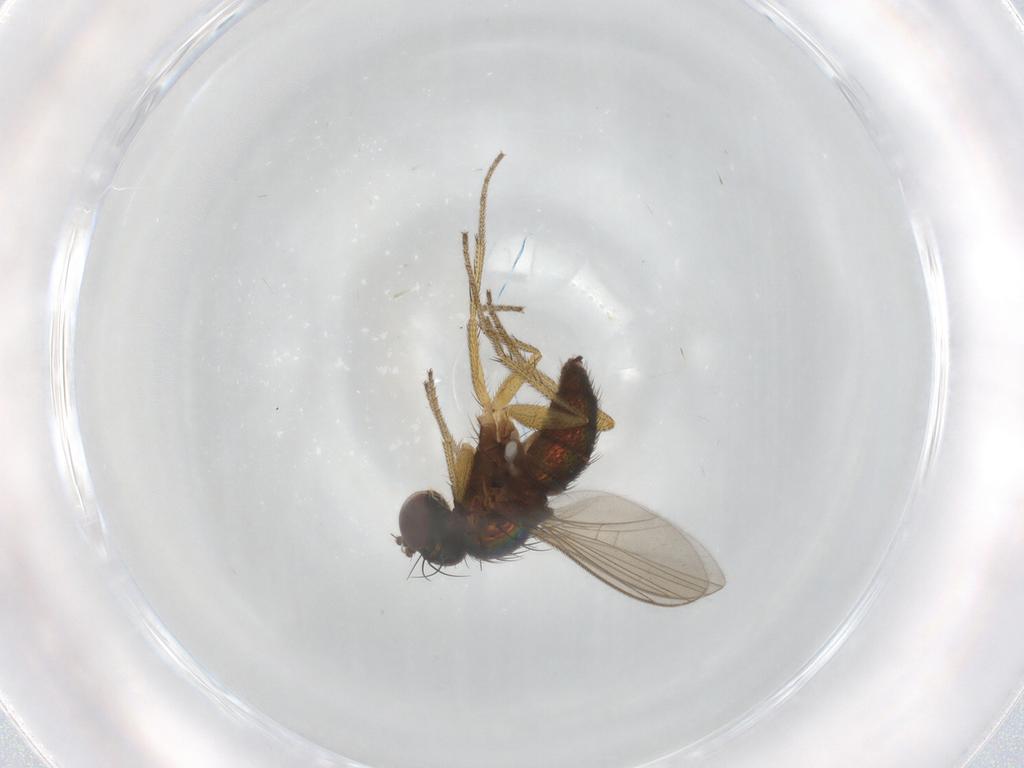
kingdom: Animalia
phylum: Arthropoda
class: Insecta
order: Diptera
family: Dolichopodidae
